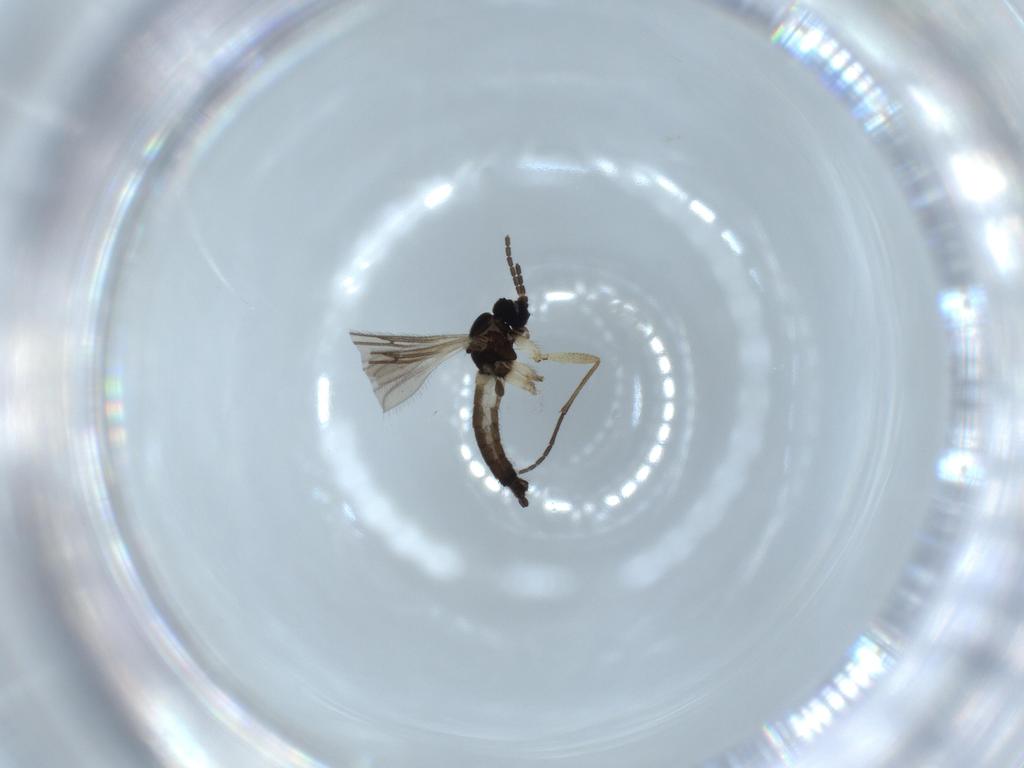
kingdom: Animalia
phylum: Arthropoda
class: Insecta
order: Diptera
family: Sciaridae
